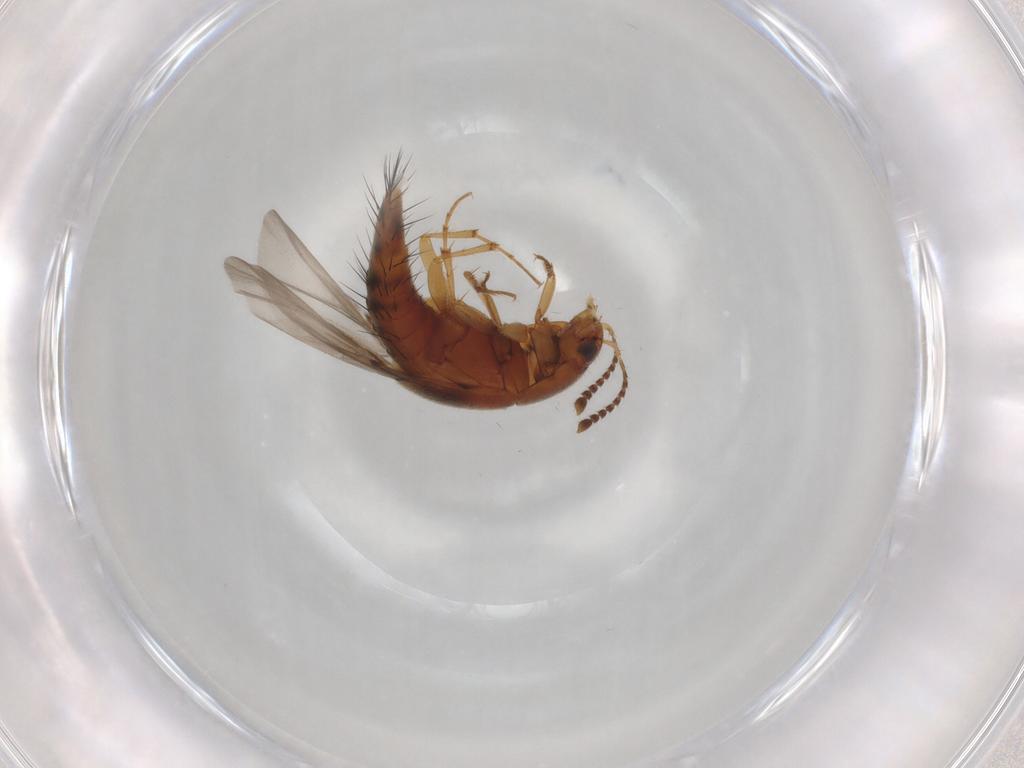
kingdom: Animalia
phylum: Arthropoda
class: Insecta
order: Coleoptera
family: Staphylinidae
